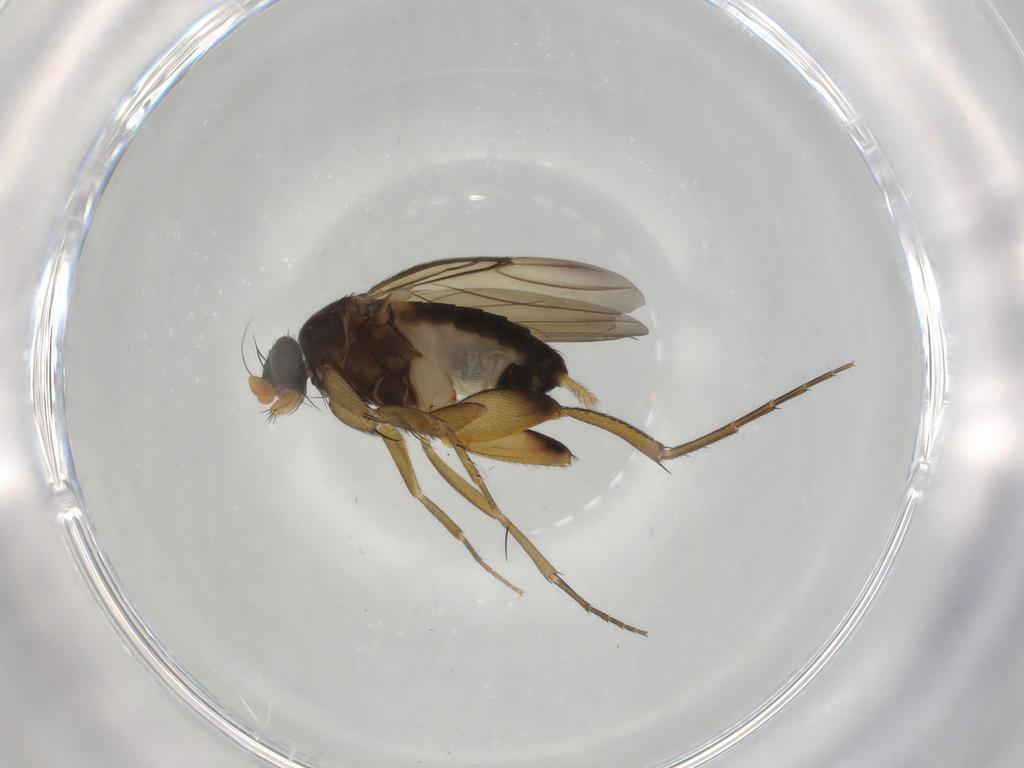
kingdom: Animalia
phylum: Arthropoda
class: Insecta
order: Diptera
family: Phoridae
